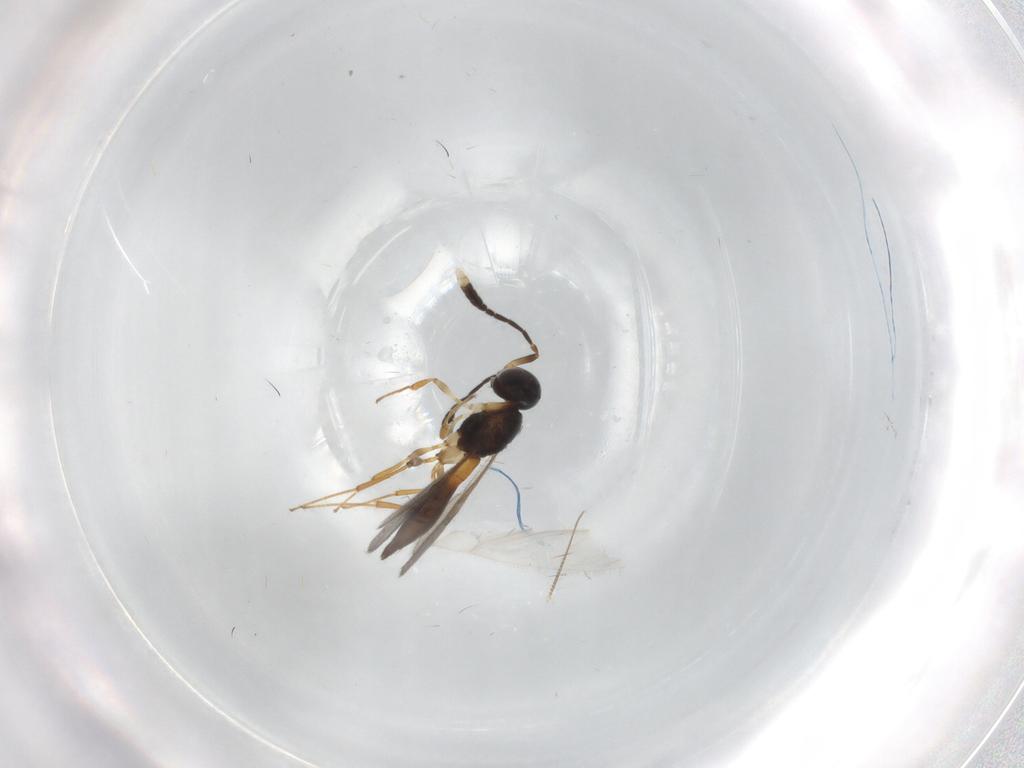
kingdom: Animalia
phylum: Arthropoda
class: Insecta
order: Hymenoptera
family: Scelionidae
